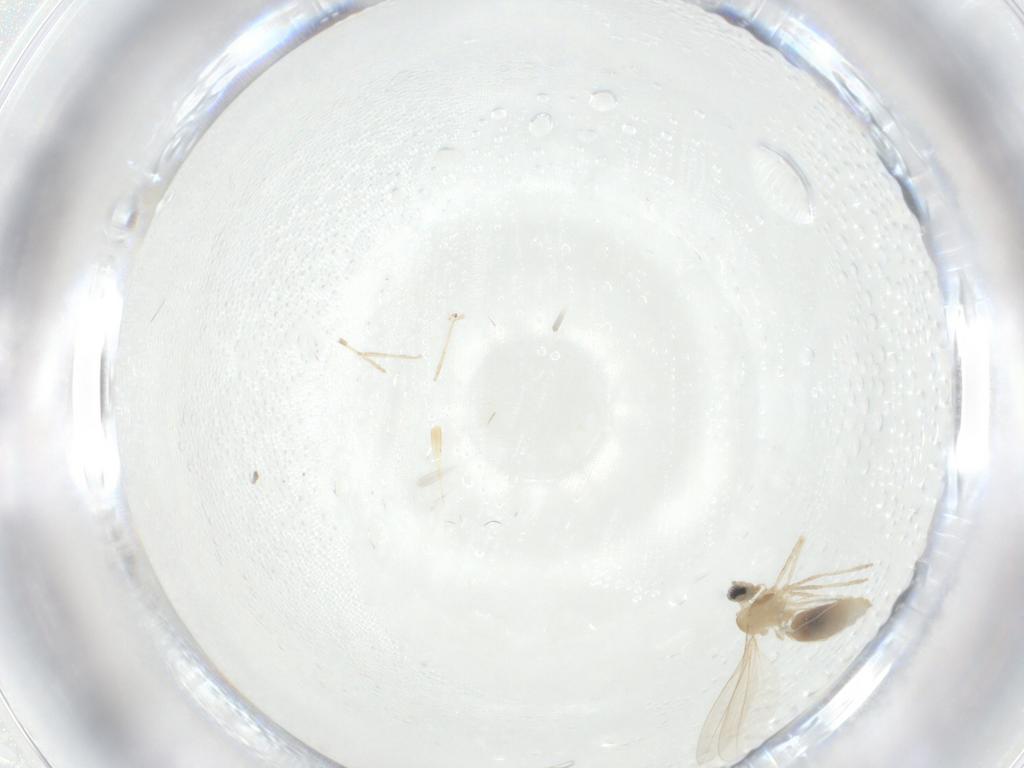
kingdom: Animalia
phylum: Arthropoda
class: Insecta
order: Diptera
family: Cecidomyiidae
